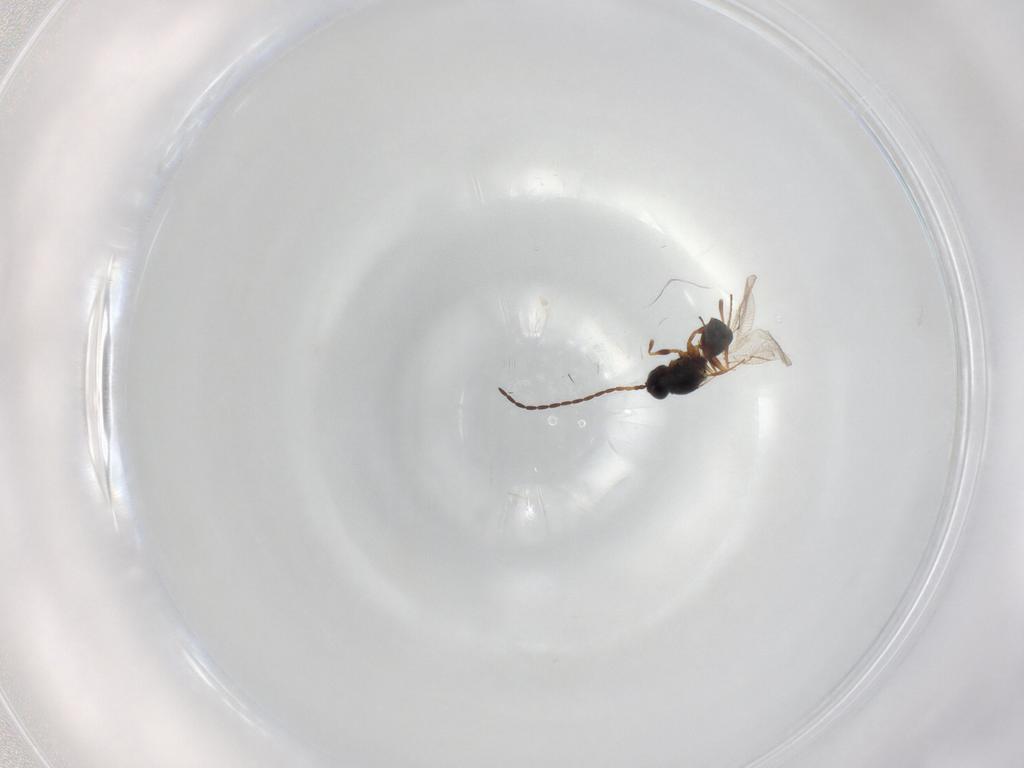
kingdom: Animalia
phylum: Arthropoda
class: Insecta
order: Hymenoptera
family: Figitidae
